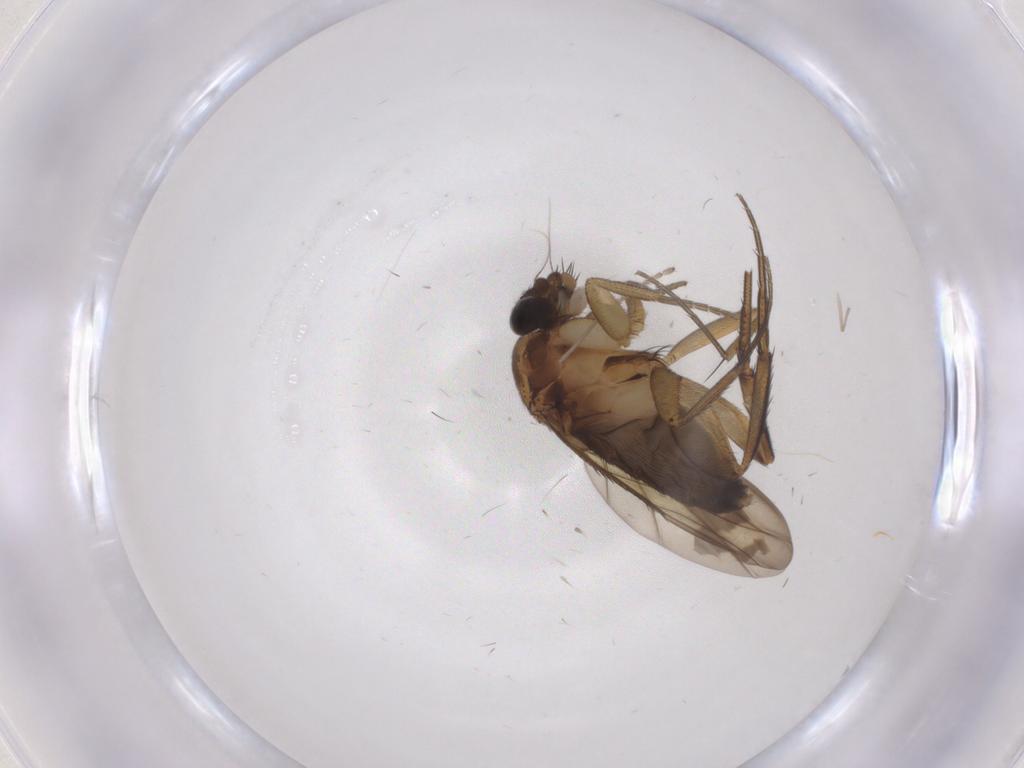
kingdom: Animalia
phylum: Arthropoda
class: Insecta
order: Diptera
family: Phoridae
